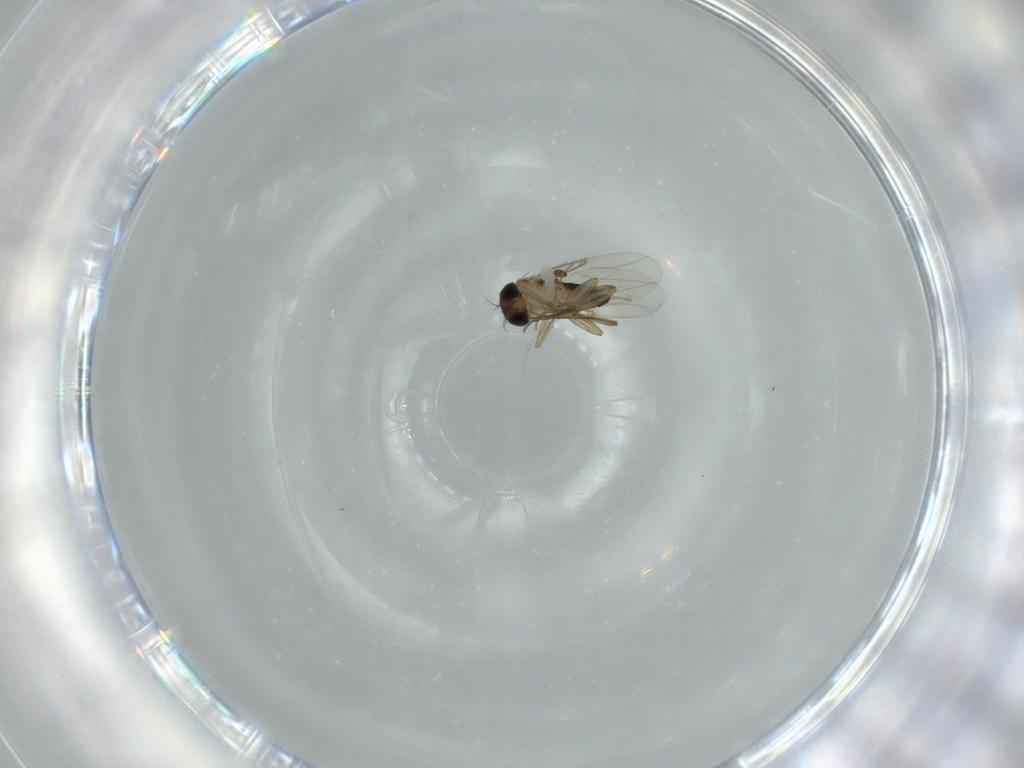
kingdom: Animalia
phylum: Arthropoda
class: Insecta
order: Diptera
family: Phoridae
